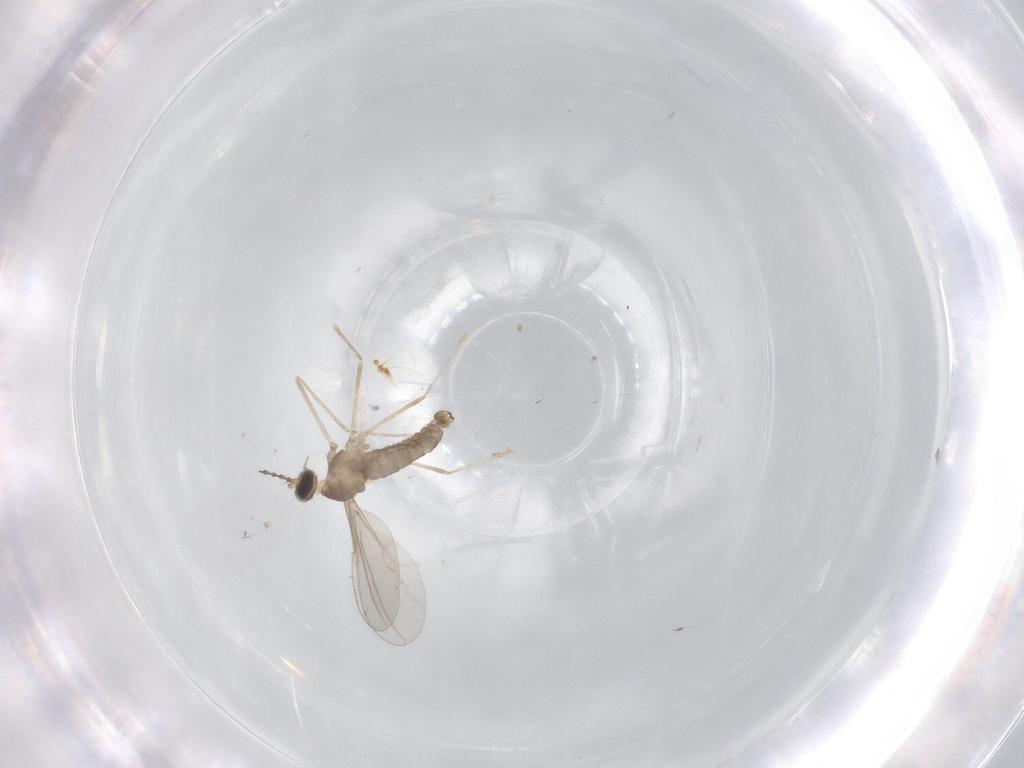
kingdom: Animalia
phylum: Arthropoda
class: Insecta
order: Diptera
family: Cecidomyiidae
